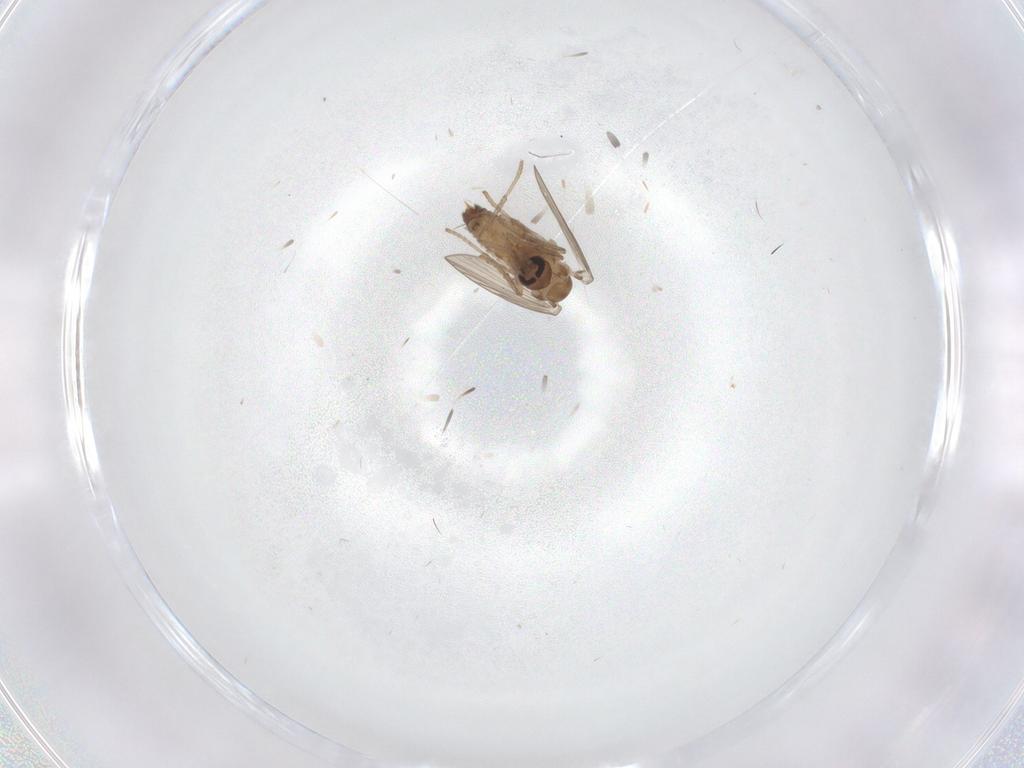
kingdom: Animalia
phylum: Arthropoda
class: Insecta
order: Diptera
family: Psychodidae
